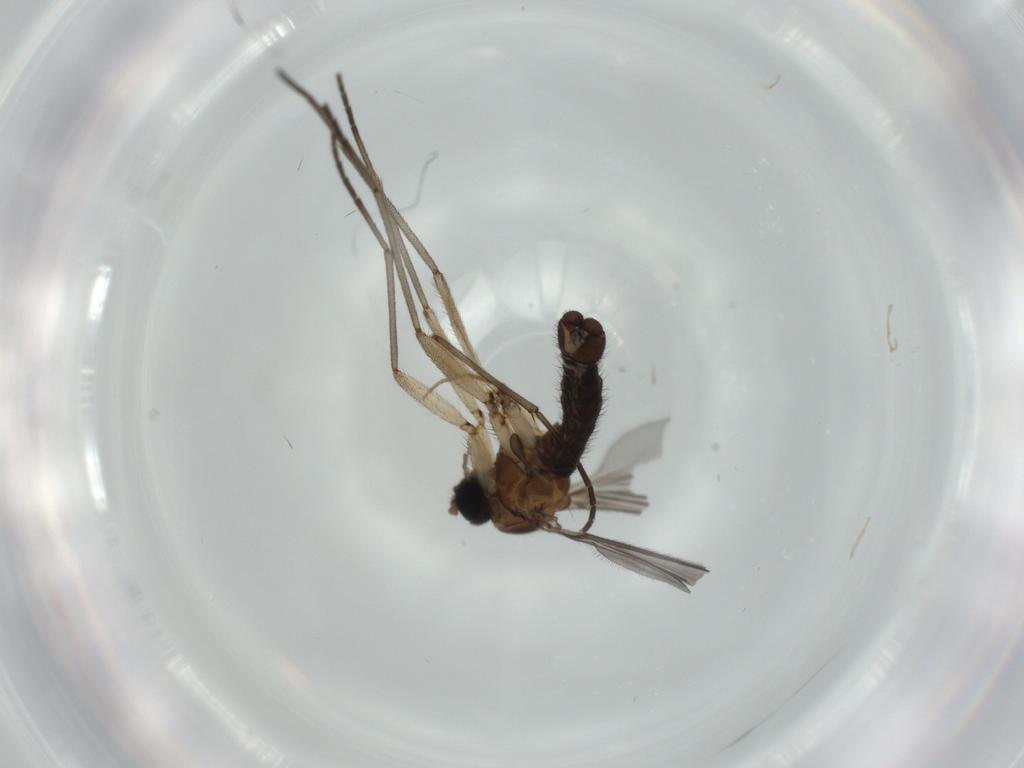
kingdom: Animalia
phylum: Arthropoda
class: Insecta
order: Diptera
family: Sciaridae
